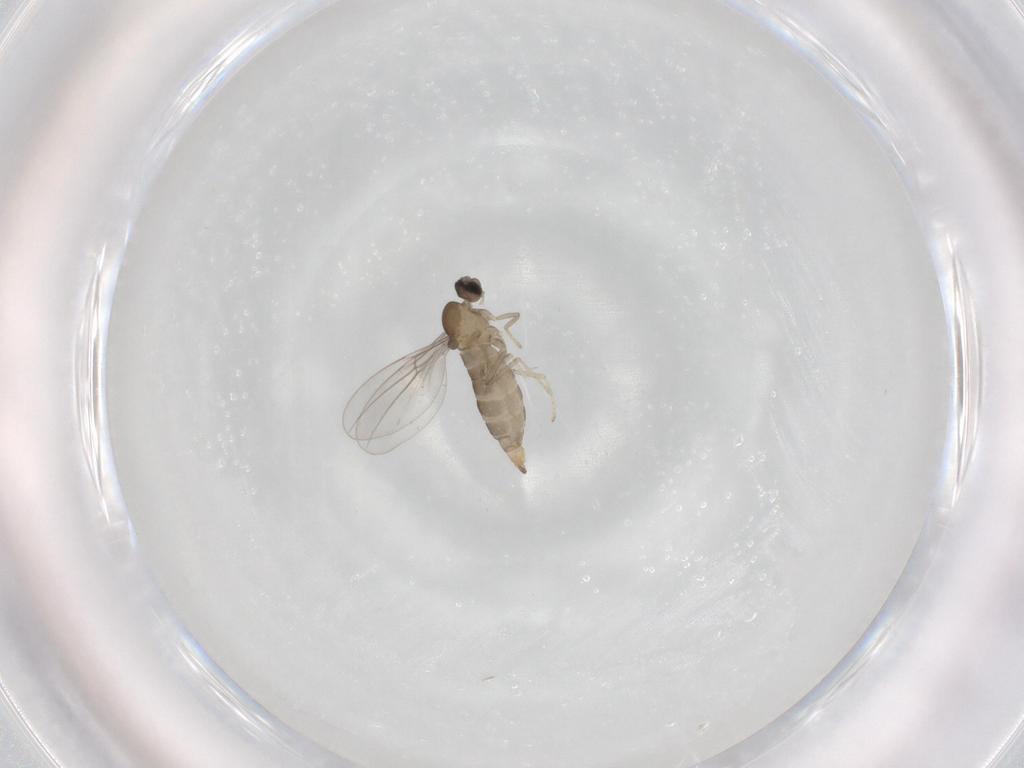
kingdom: Animalia
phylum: Arthropoda
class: Insecta
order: Diptera
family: Cecidomyiidae
